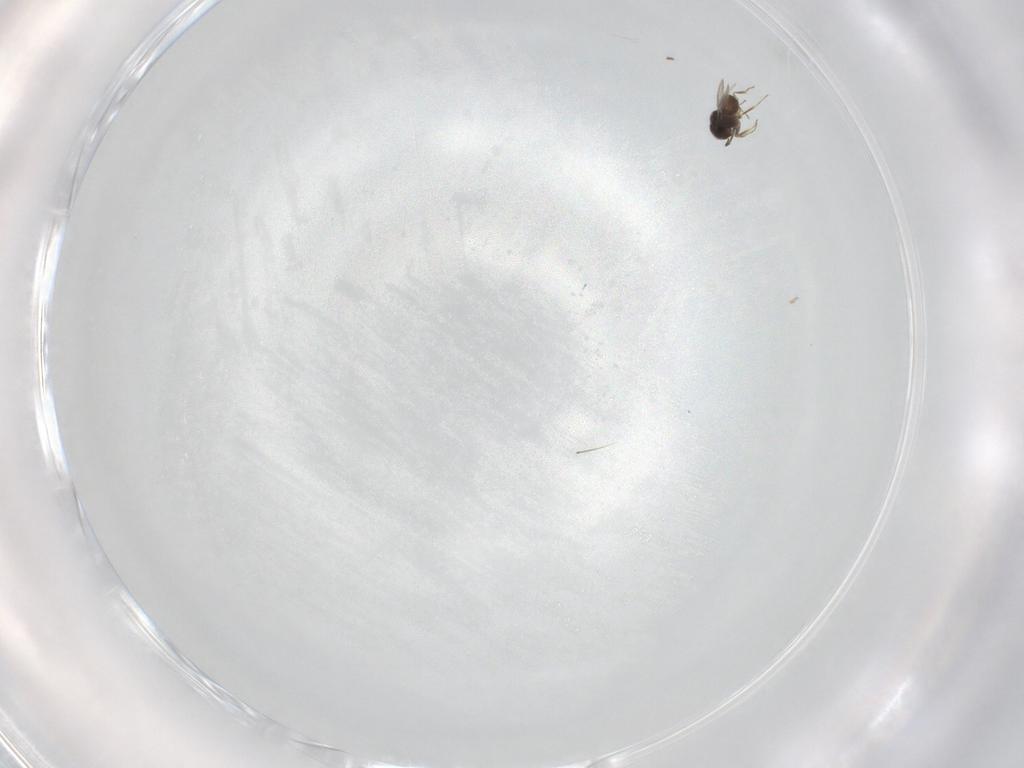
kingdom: Animalia
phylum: Arthropoda
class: Insecta
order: Hymenoptera
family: Scelionidae
